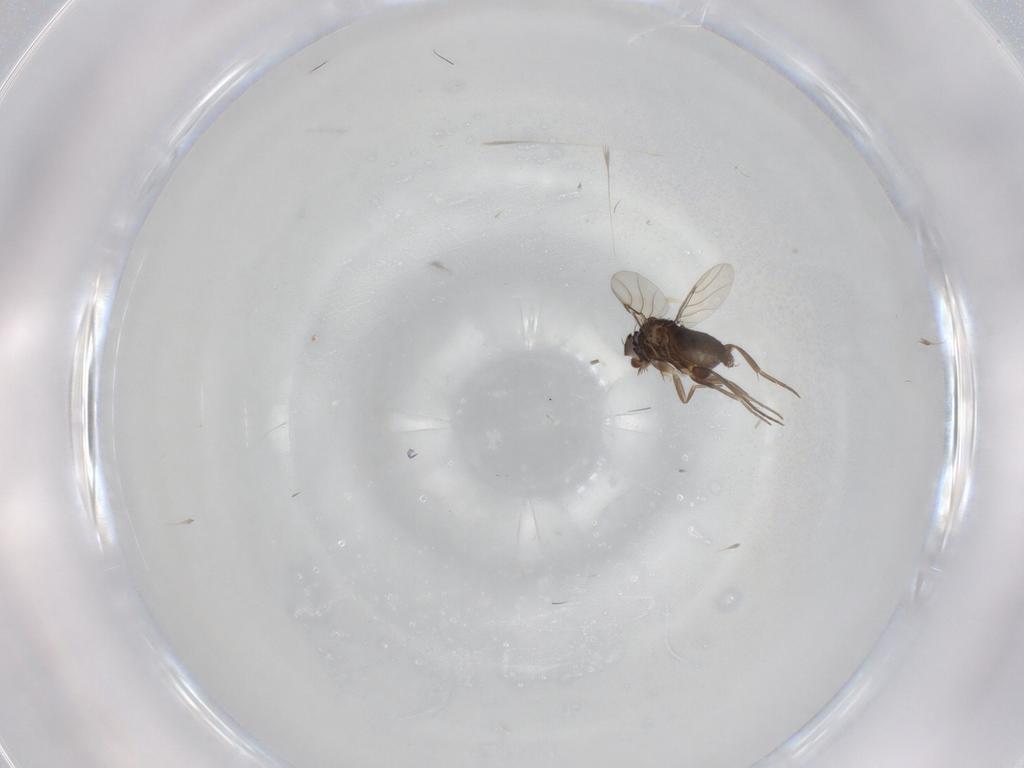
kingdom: Animalia
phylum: Arthropoda
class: Insecta
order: Diptera
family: Phoridae
